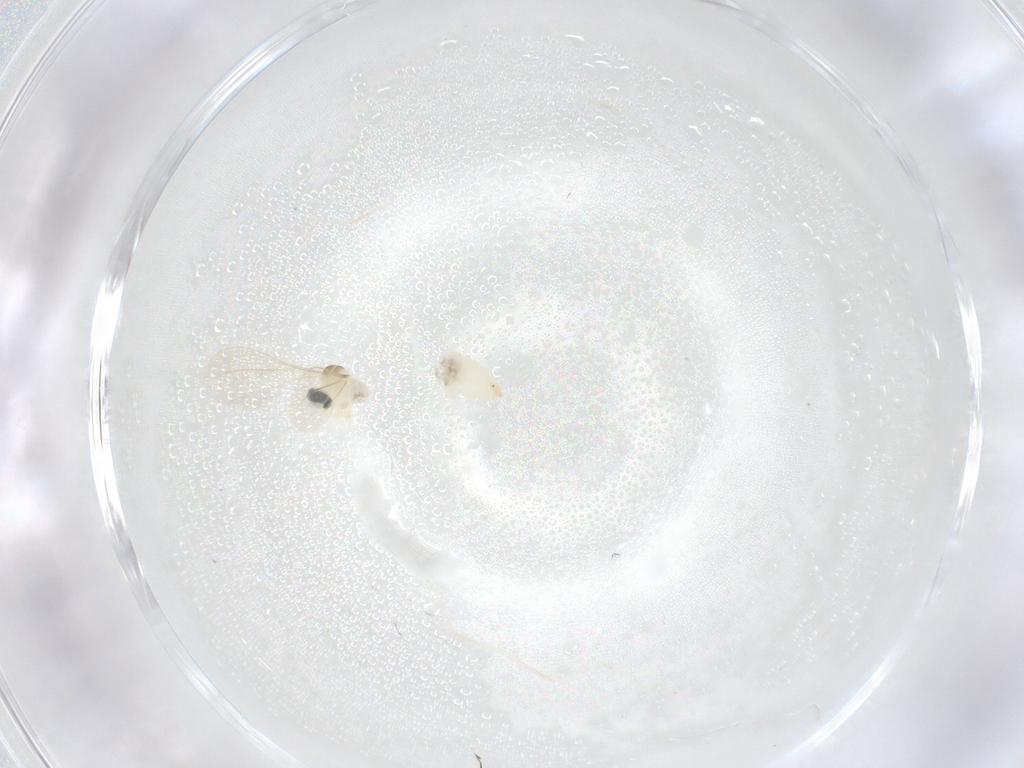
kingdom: Animalia
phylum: Arthropoda
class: Insecta
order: Diptera
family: Cecidomyiidae
